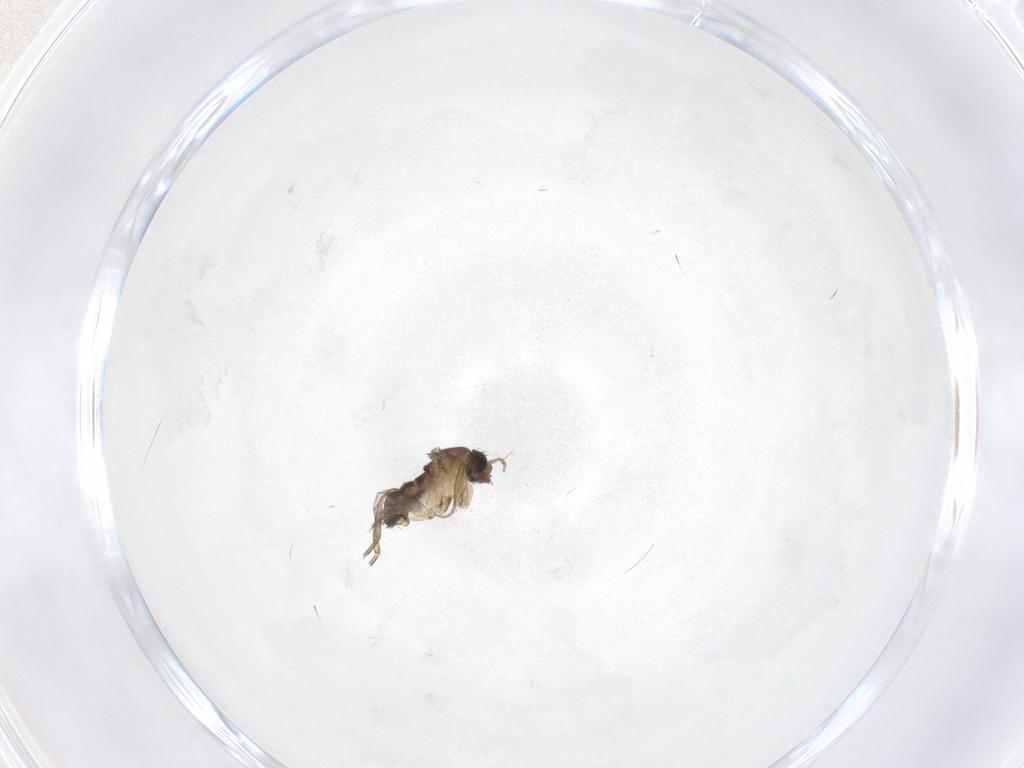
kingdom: Animalia
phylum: Arthropoda
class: Insecta
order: Diptera
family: Phoridae
